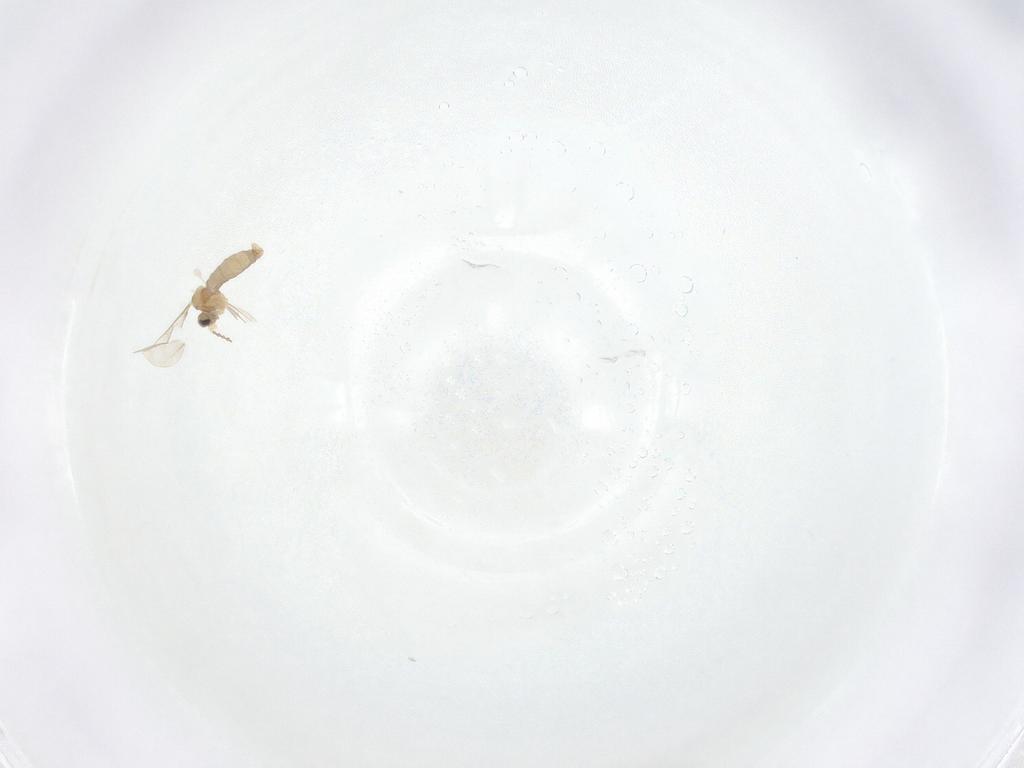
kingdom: Animalia
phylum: Arthropoda
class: Insecta
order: Diptera
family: Cecidomyiidae
